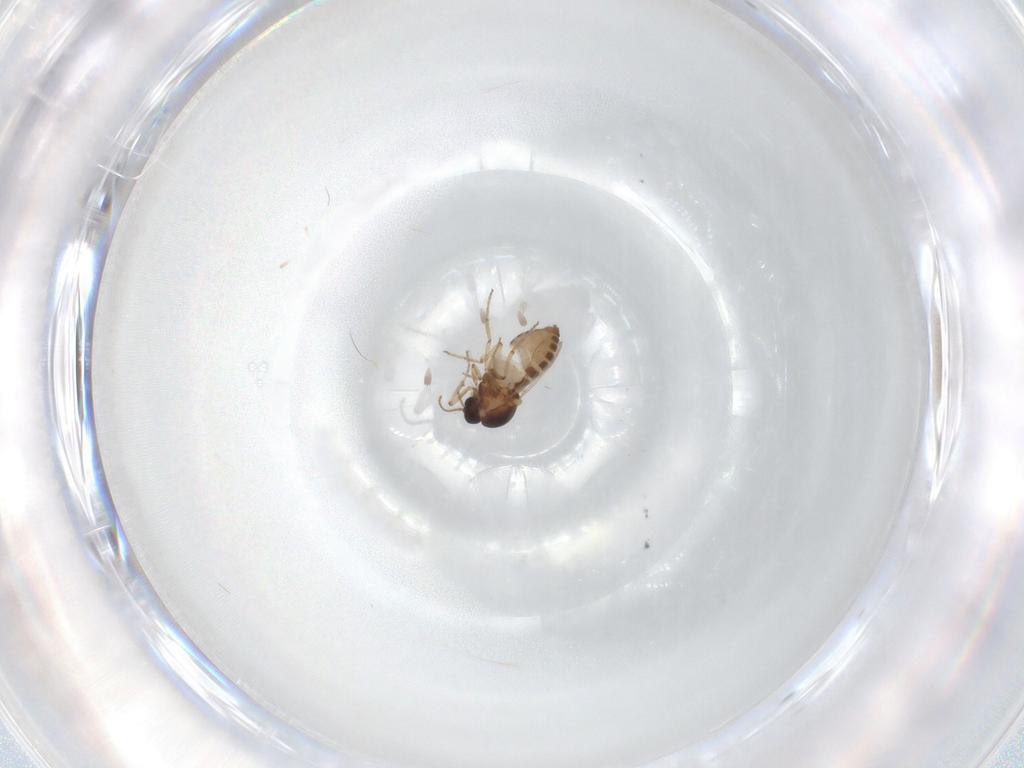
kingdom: Animalia
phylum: Arthropoda
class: Insecta
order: Diptera
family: Ceratopogonidae
